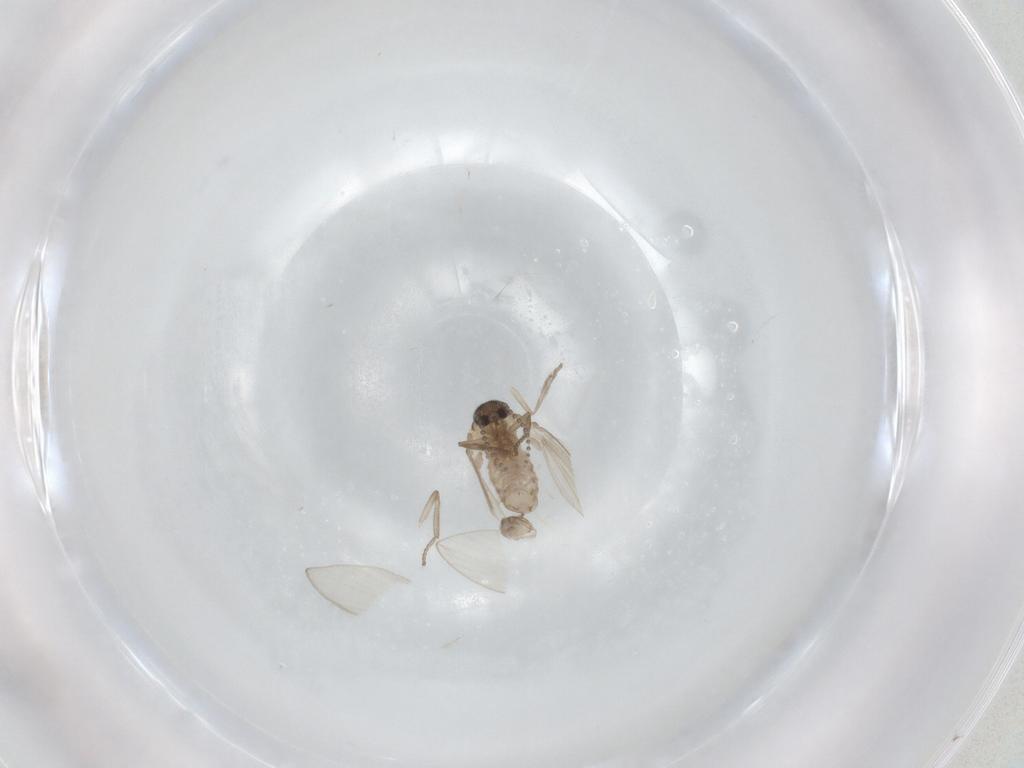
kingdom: Animalia
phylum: Arthropoda
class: Insecta
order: Diptera
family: Psychodidae
